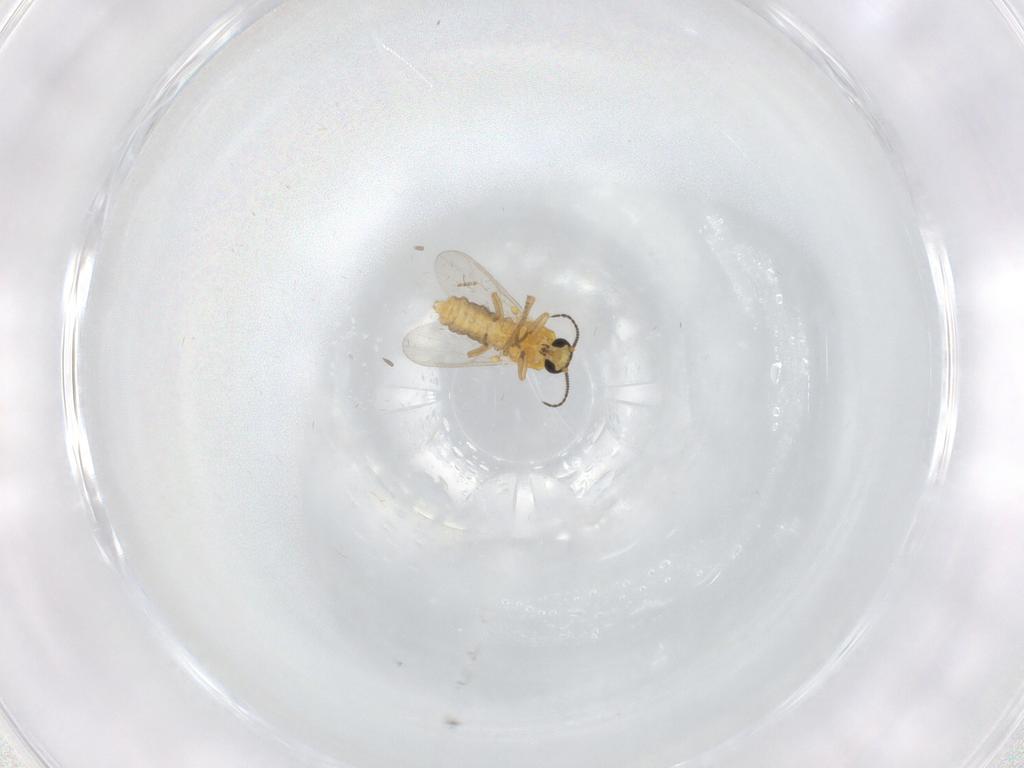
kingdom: Animalia
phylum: Arthropoda
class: Insecta
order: Diptera
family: Ceratopogonidae
